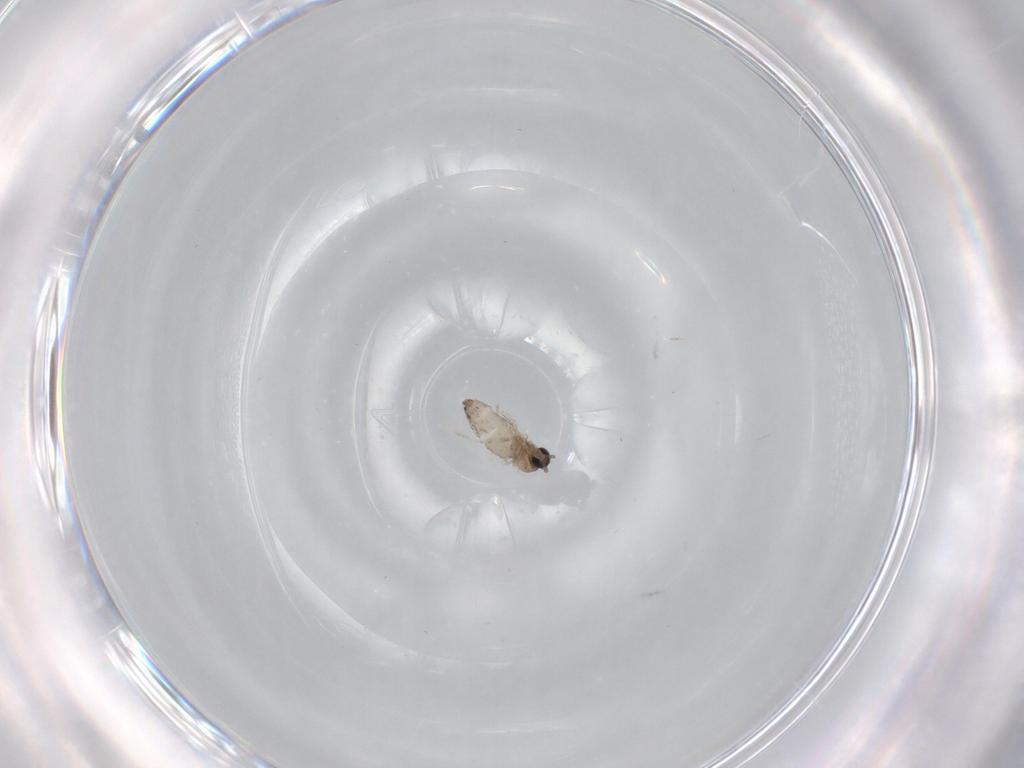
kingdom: Animalia
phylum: Arthropoda
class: Insecta
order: Diptera
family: Cecidomyiidae
